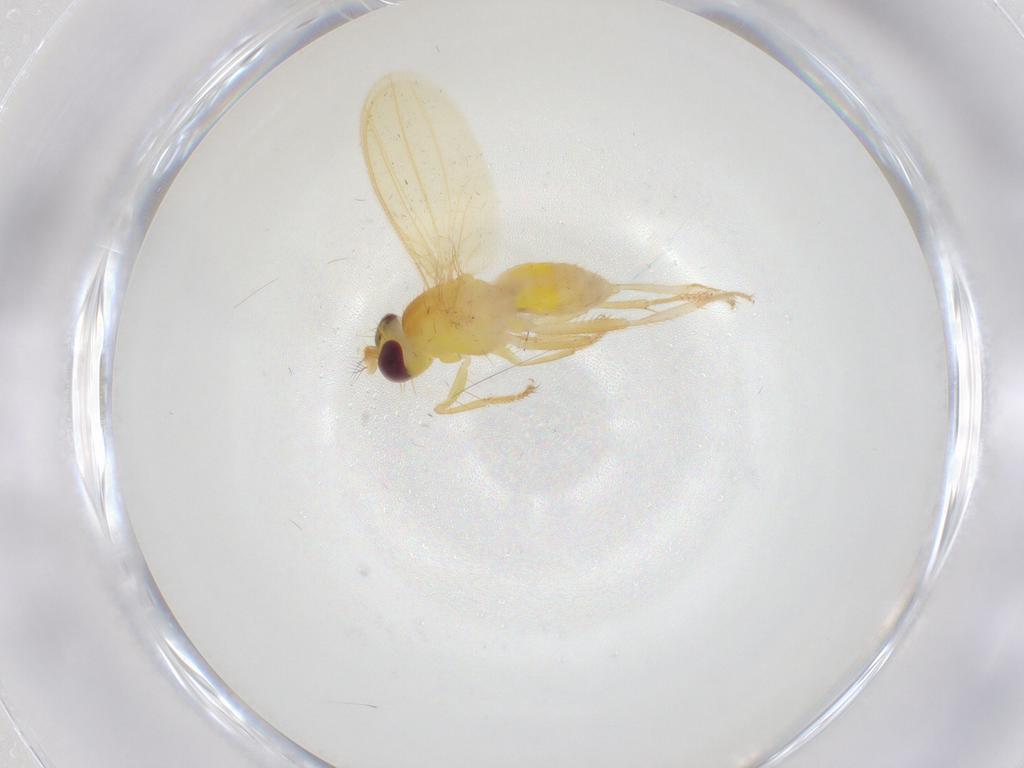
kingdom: Animalia
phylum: Arthropoda
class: Insecta
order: Diptera
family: Periscelididae
